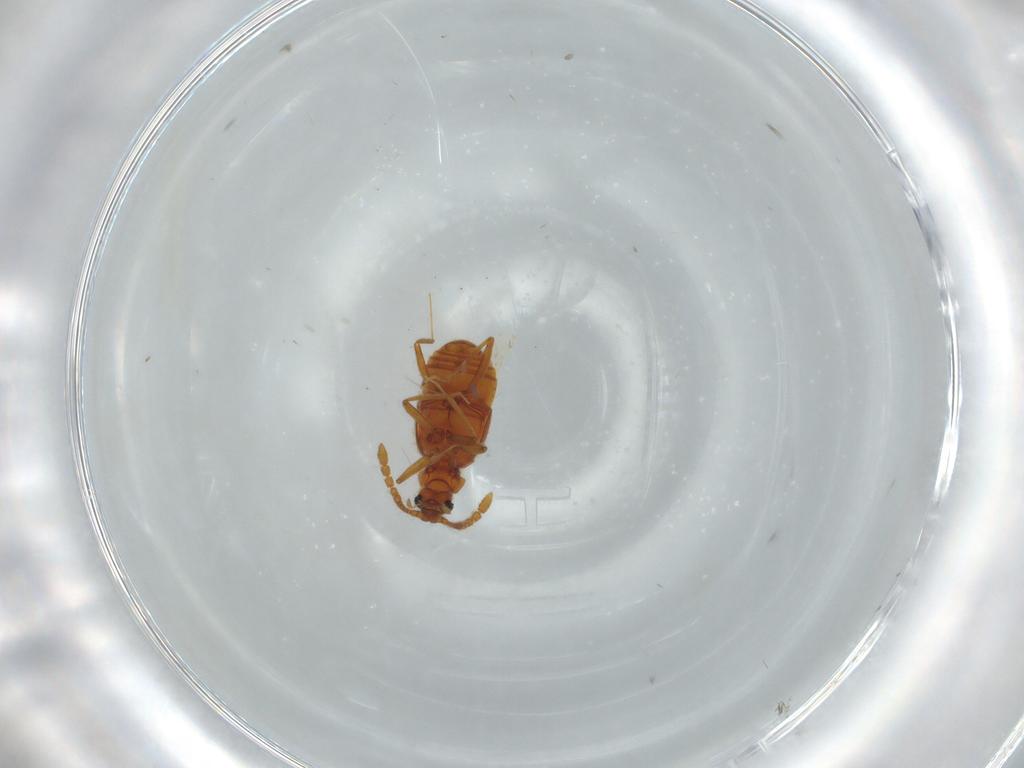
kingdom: Animalia
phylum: Arthropoda
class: Insecta
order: Coleoptera
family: Staphylinidae
